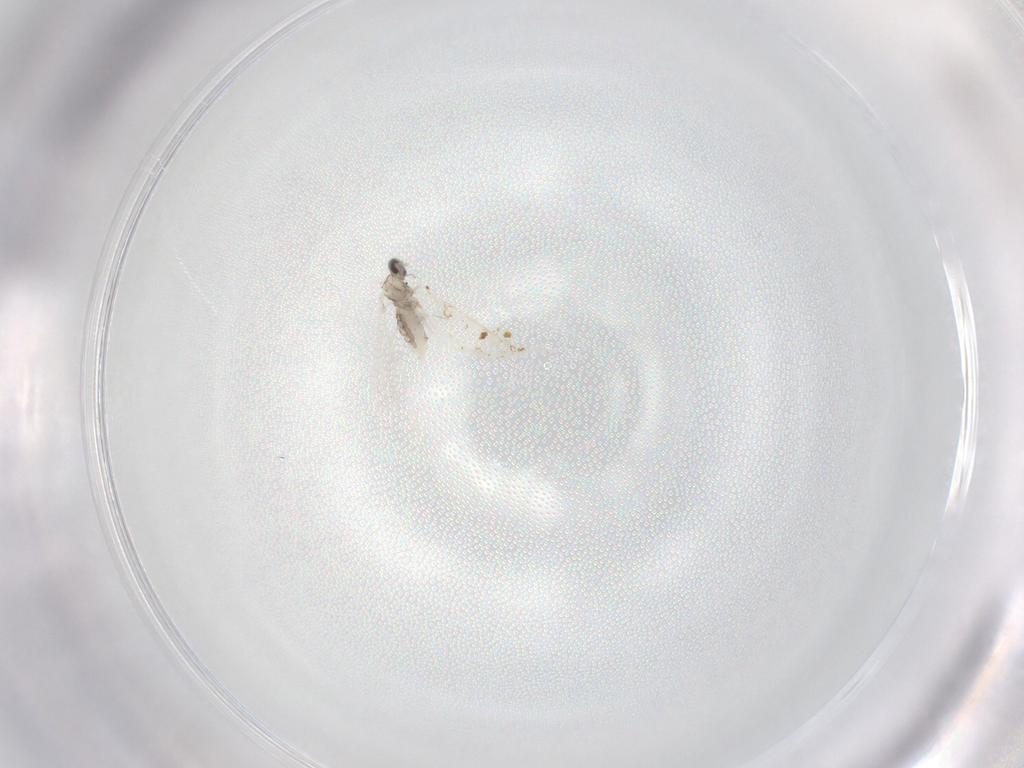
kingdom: Animalia
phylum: Arthropoda
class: Insecta
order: Diptera
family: Cecidomyiidae
